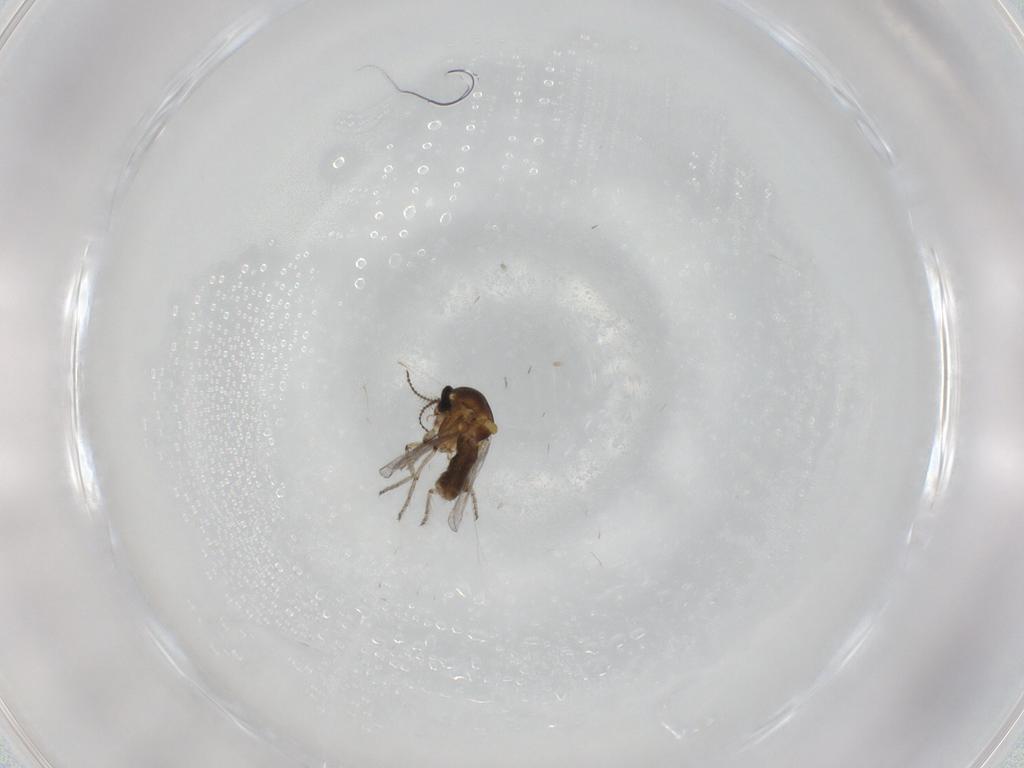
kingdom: Animalia
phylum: Arthropoda
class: Insecta
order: Diptera
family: Ceratopogonidae
